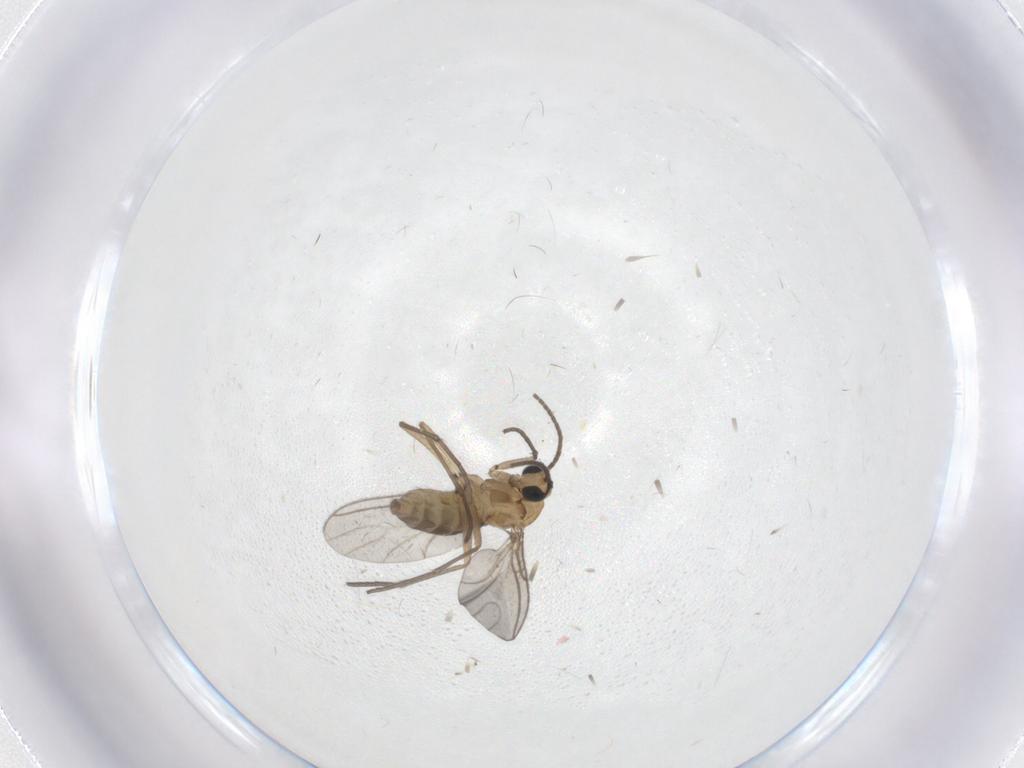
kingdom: Animalia
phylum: Arthropoda
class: Insecta
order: Diptera
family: Sciaridae
